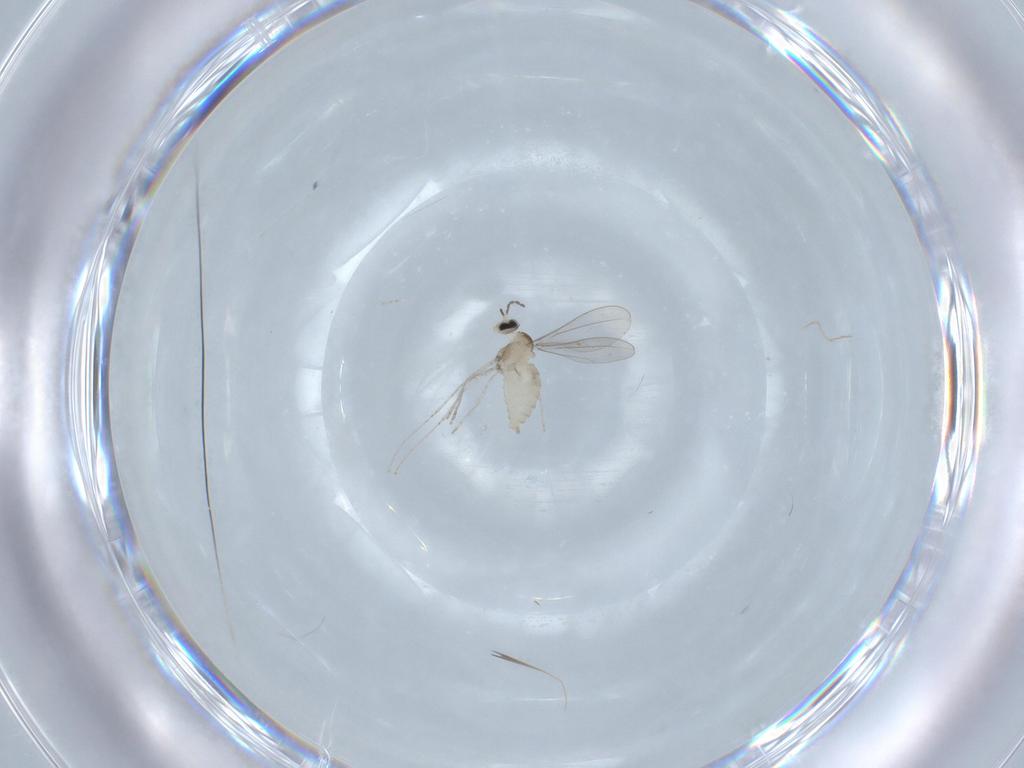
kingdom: Animalia
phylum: Arthropoda
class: Insecta
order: Diptera
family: Cecidomyiidae
